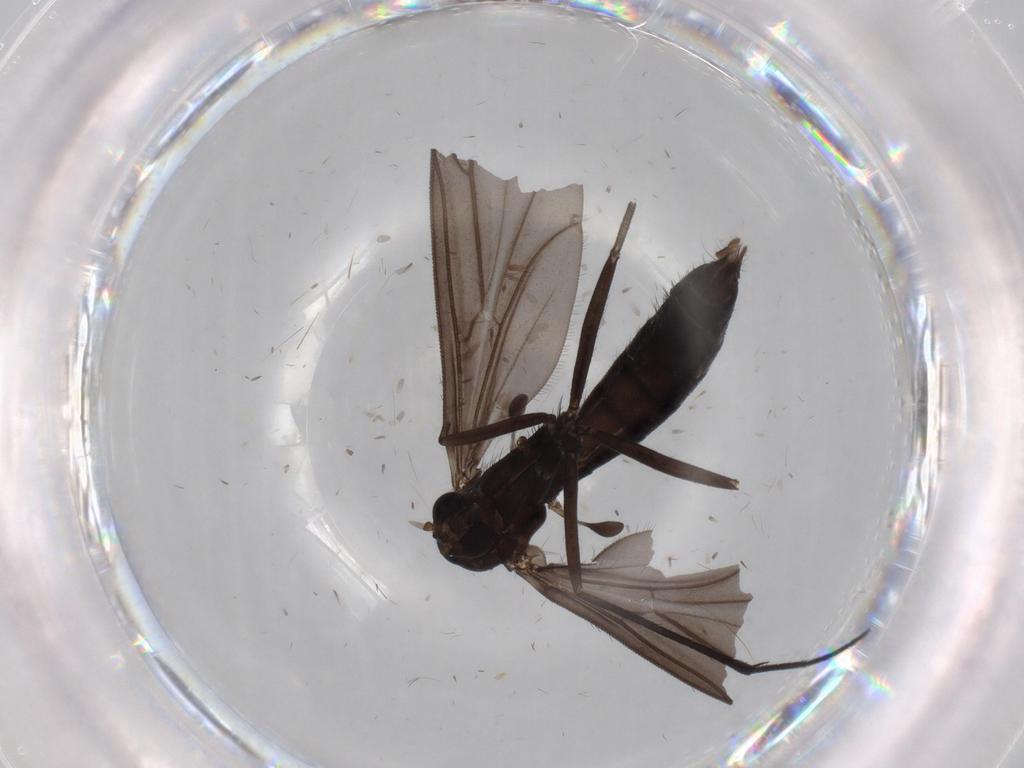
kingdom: Animalia
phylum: Arthropoda
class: Insecta
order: Diptera
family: Ditomyiidae
